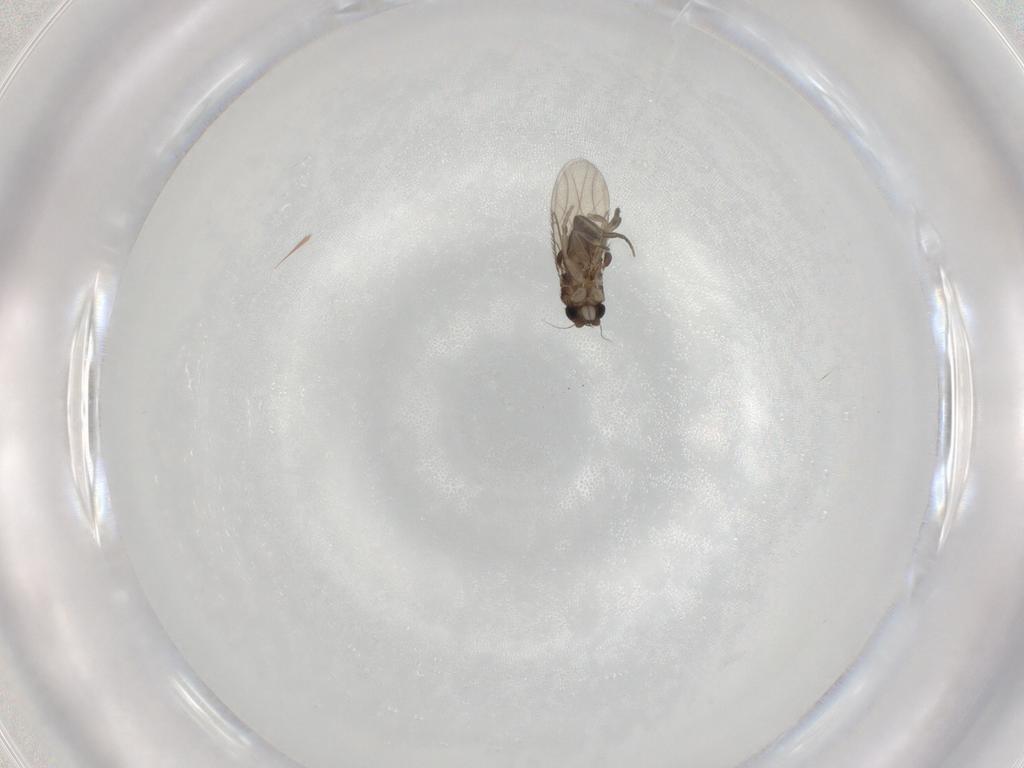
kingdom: Animalia
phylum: Arthropoda
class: Insecta
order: Diptera
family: Phoridae
